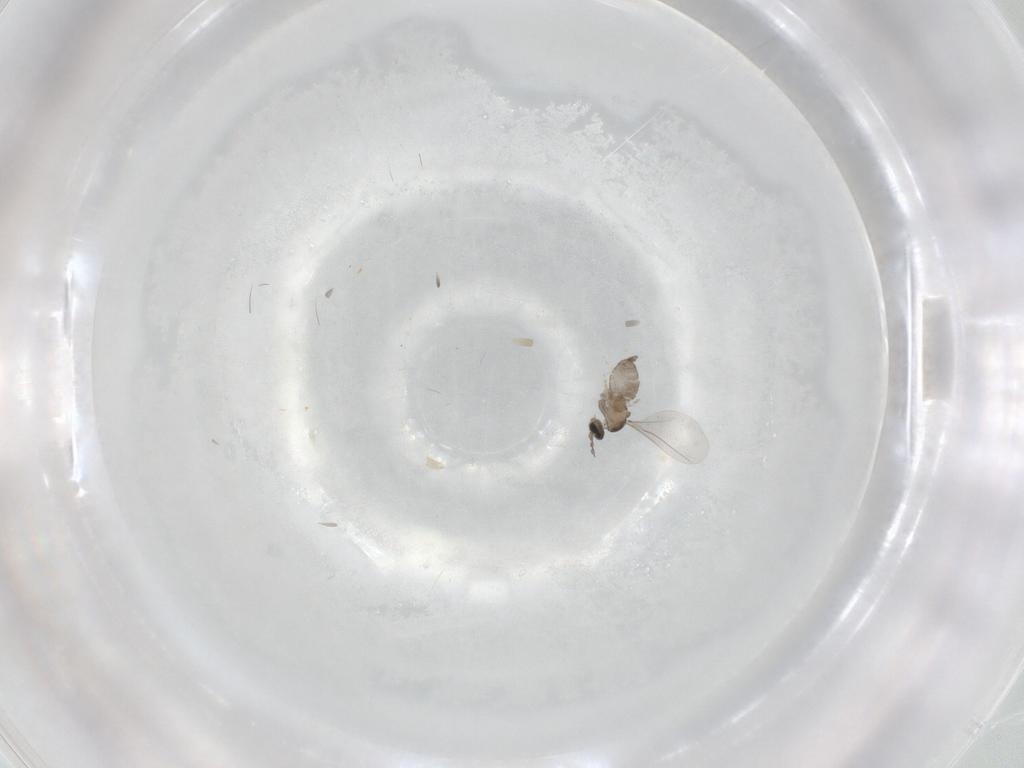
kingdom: Animalia
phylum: Arthropoda
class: Insecta
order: Diptera
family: Cecidomyiidae
